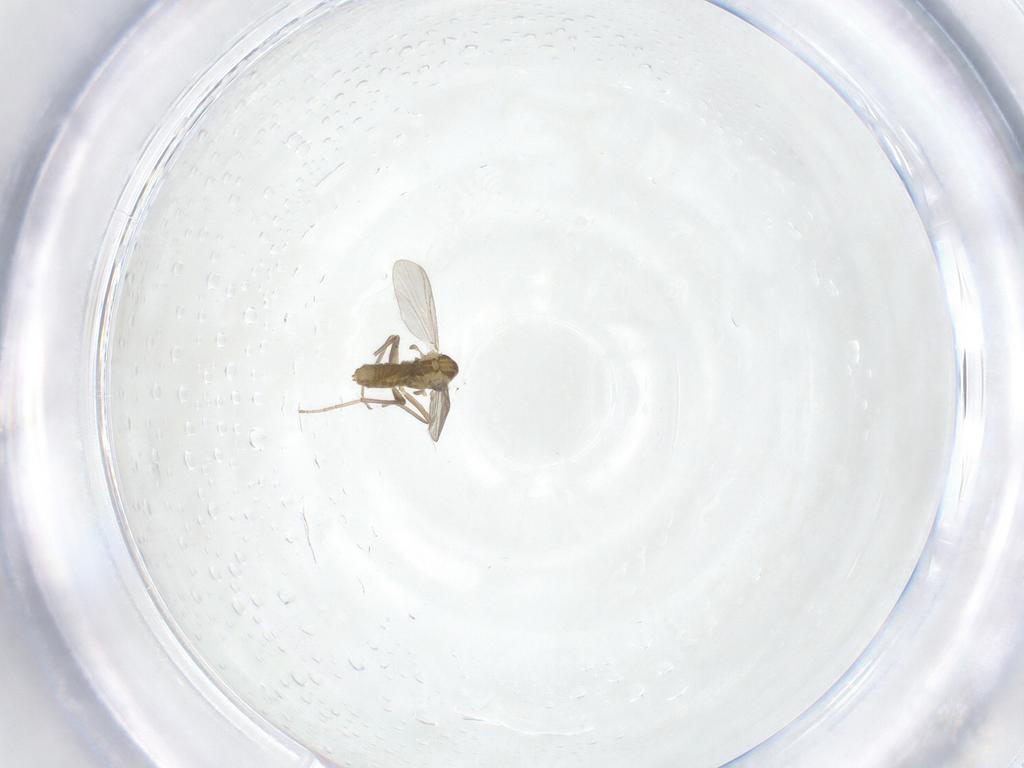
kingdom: Animalia
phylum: Arthropoda
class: Insecta
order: Diptera
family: Chironomidae
